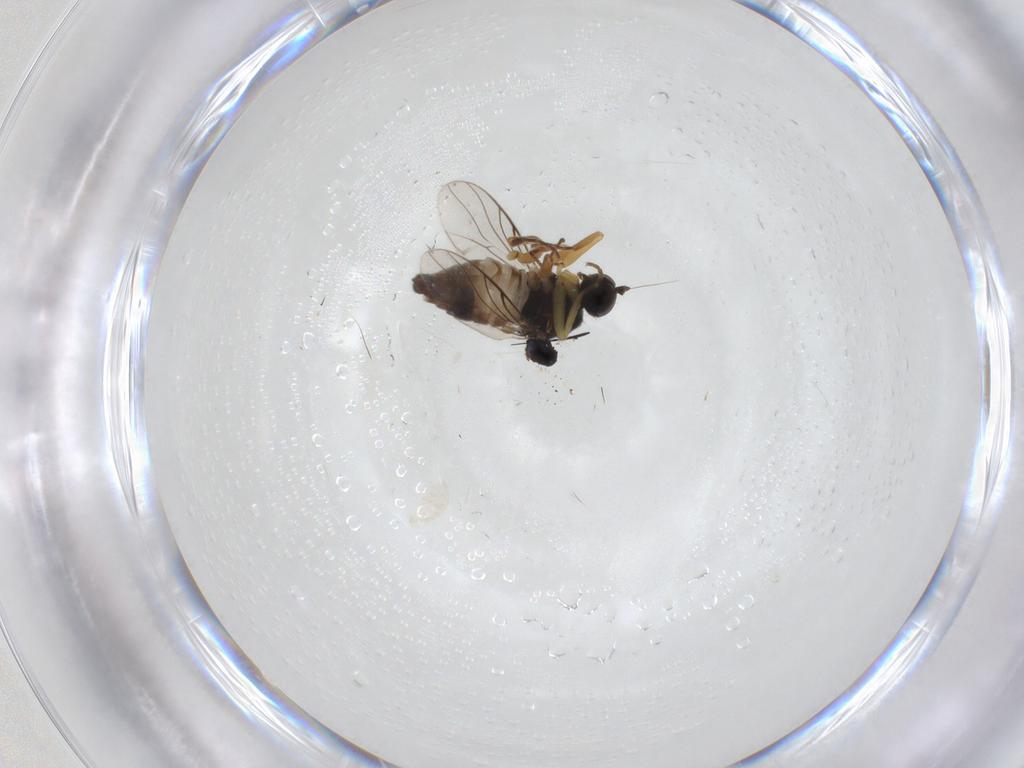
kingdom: Animalia
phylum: Arthropoda
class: Insecta
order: Diptera
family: Hybotidae
